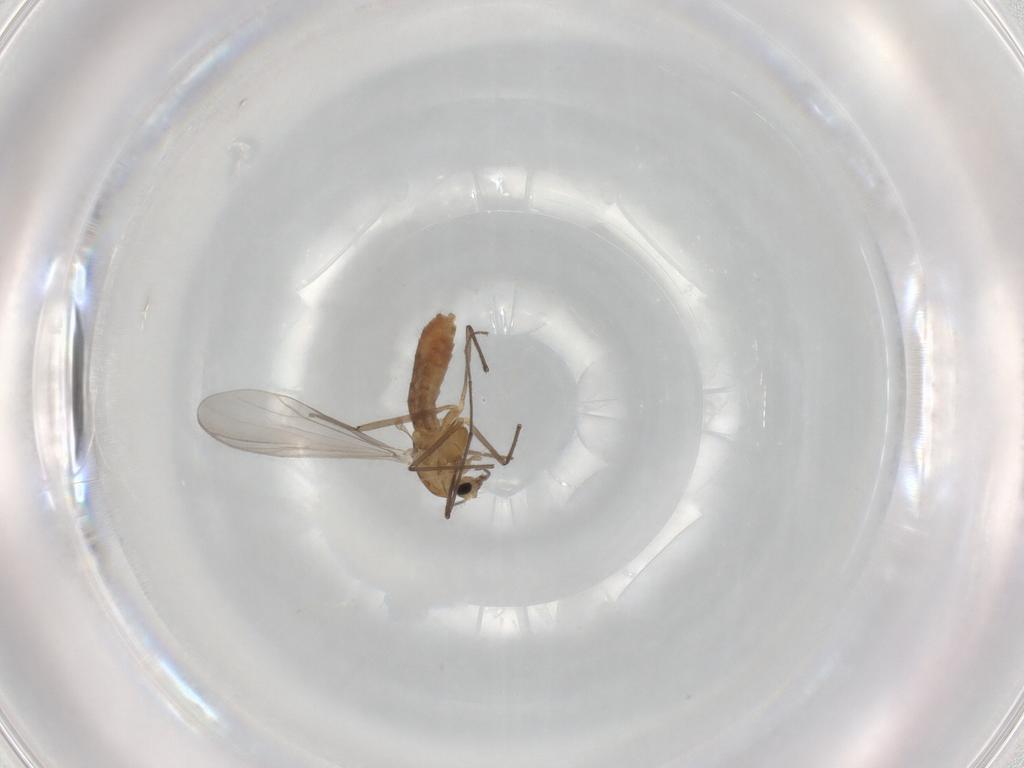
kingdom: Animalia
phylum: Arthropoda
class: Insecta
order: Diptera
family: Chironomidae
